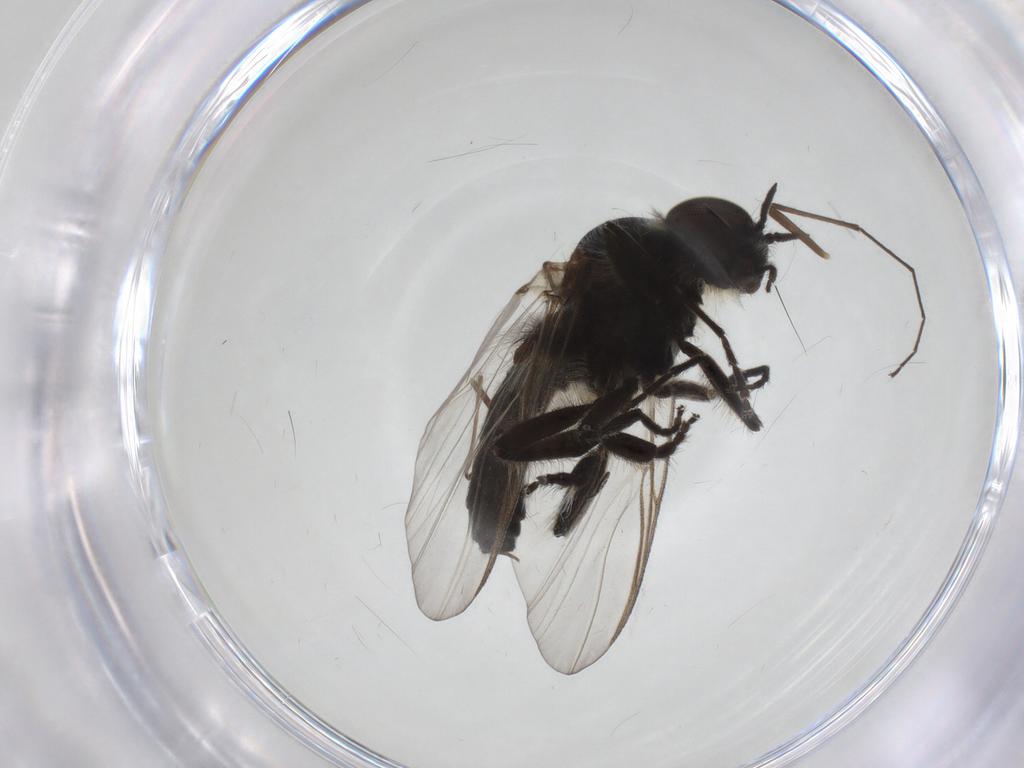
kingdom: Animalia
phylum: Arthropoda
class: Insecta
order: Diptera
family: Simuliidae
